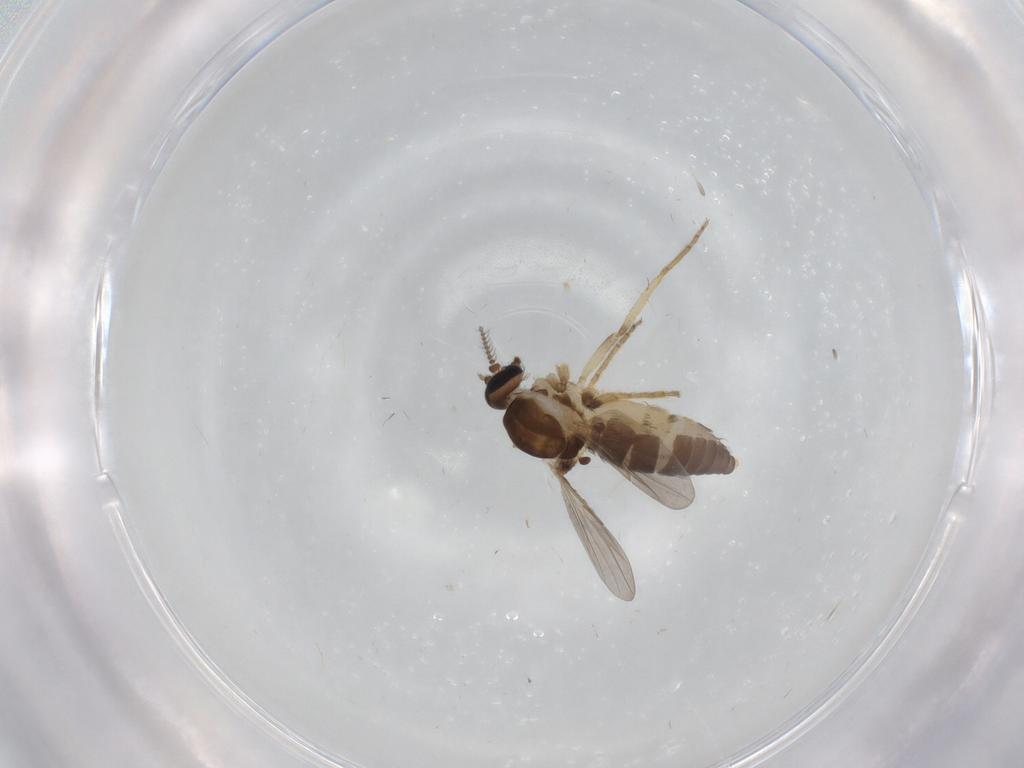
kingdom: Animalia
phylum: Arthropoda
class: Insecta
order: Diptera
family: Ceratopogonidae
